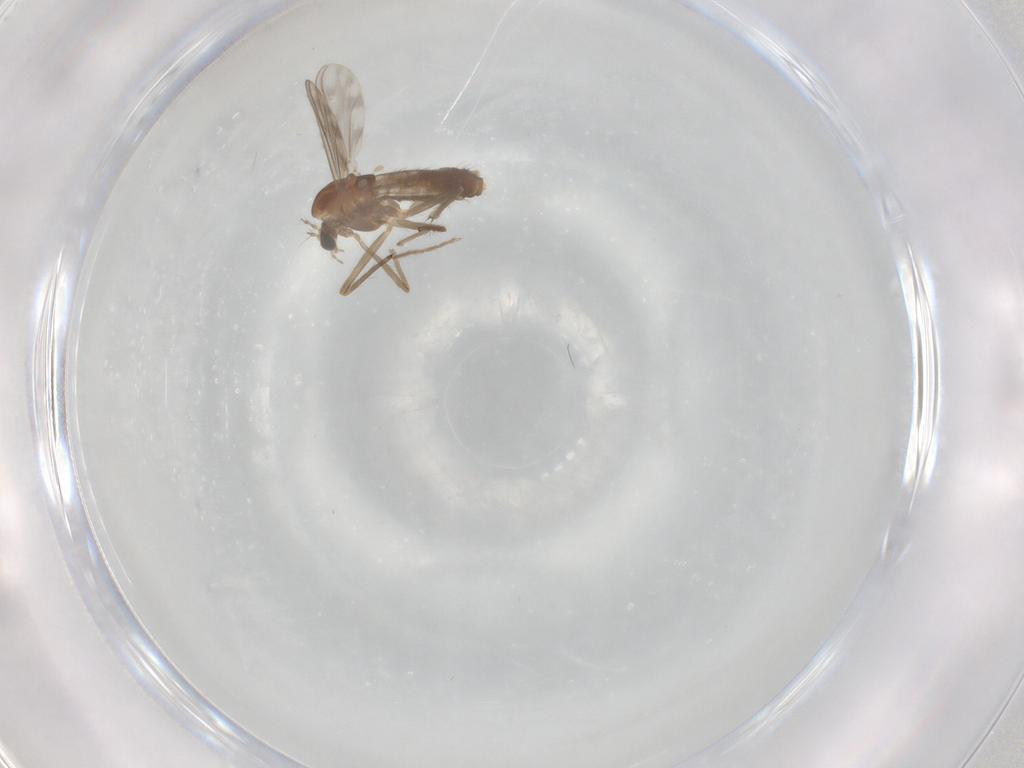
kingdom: Animalia
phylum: Arthropoda
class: Insecta
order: Diptera
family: Chironomidae
